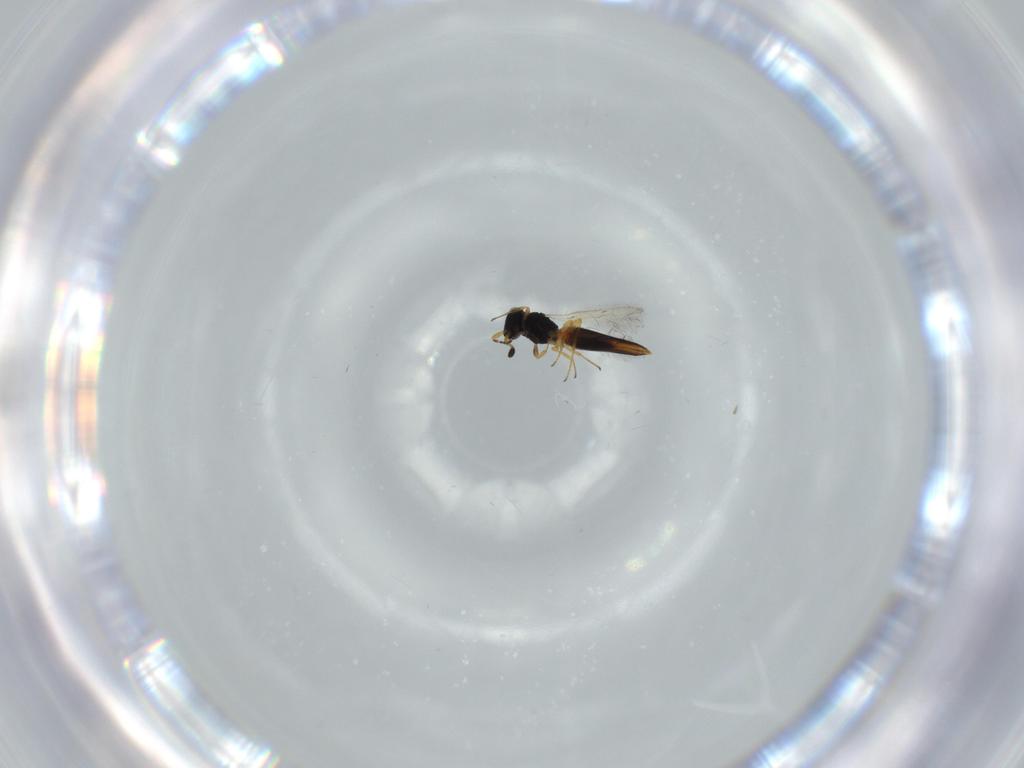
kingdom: Animalia
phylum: Arthropoda
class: Insecta
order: Hymenoptera
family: Scelionidae
